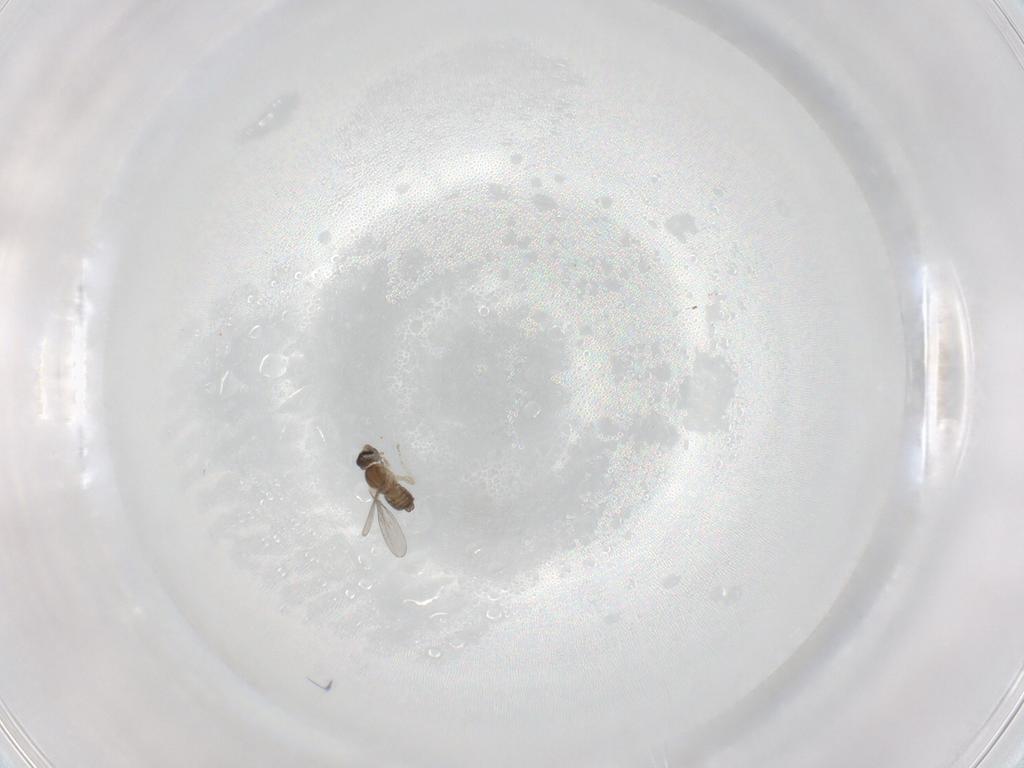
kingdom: Animalia
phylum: Arthropoda
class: Insecta
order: Diptera
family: Cecidomyiidae
